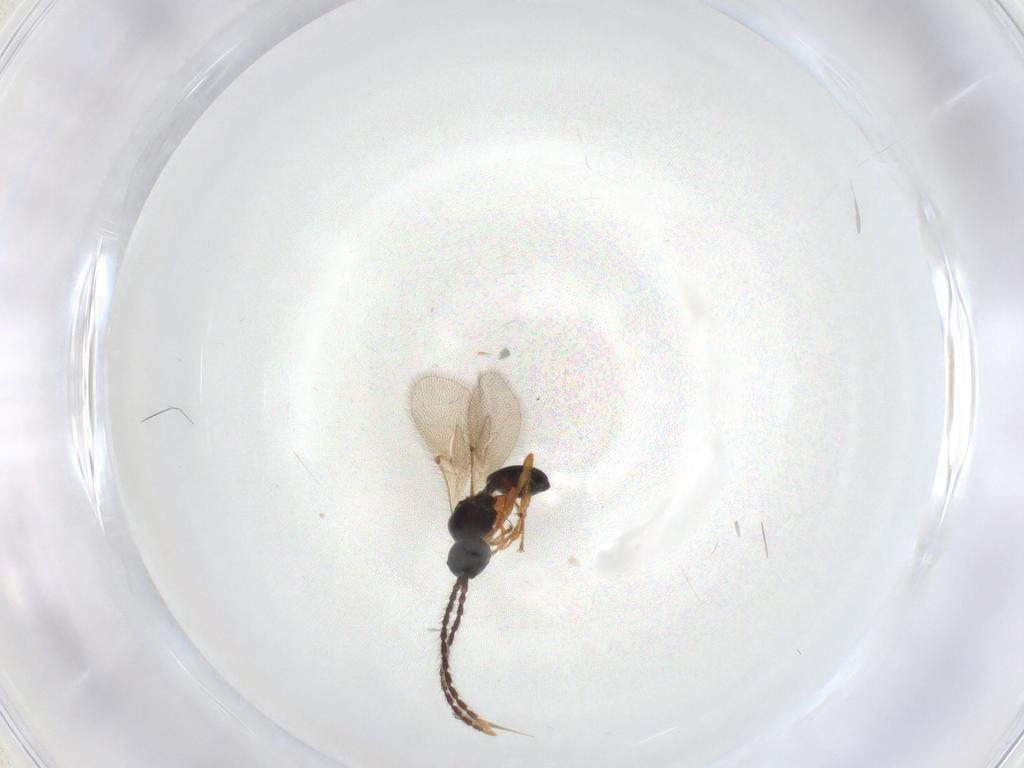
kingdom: Animalia
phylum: Arthropoda
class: Insecta
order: Hymenoptera
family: Diapriidae
